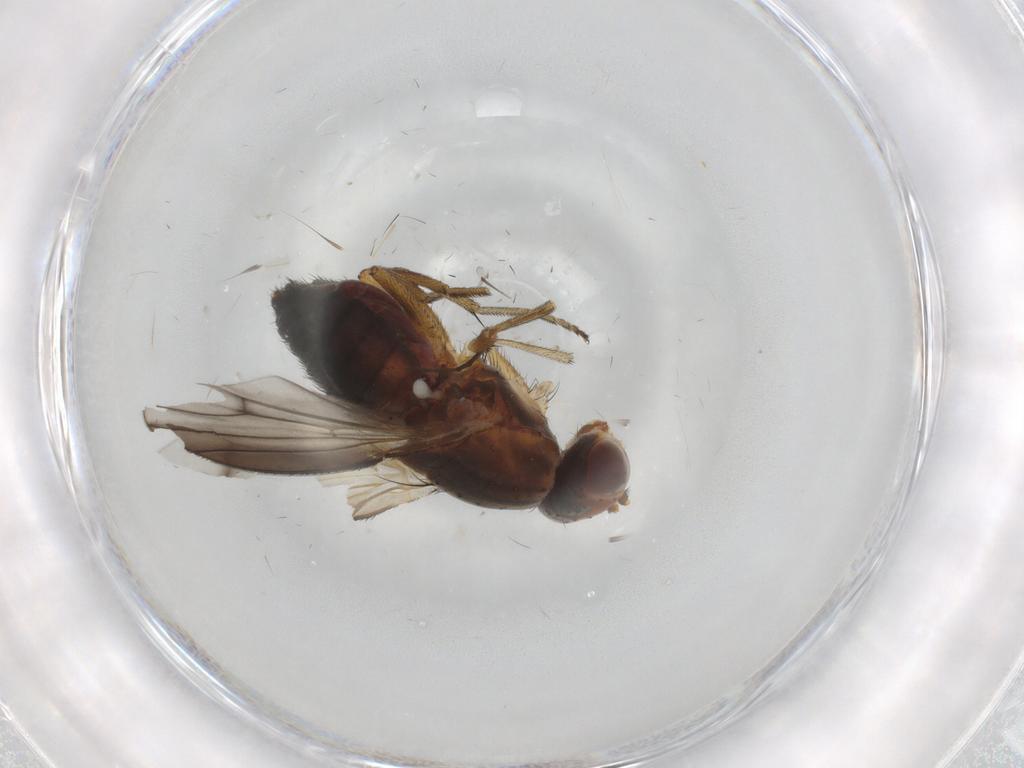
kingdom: Animalia
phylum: Arthropoda
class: Insecta
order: Diptera
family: Heleomyzidae
